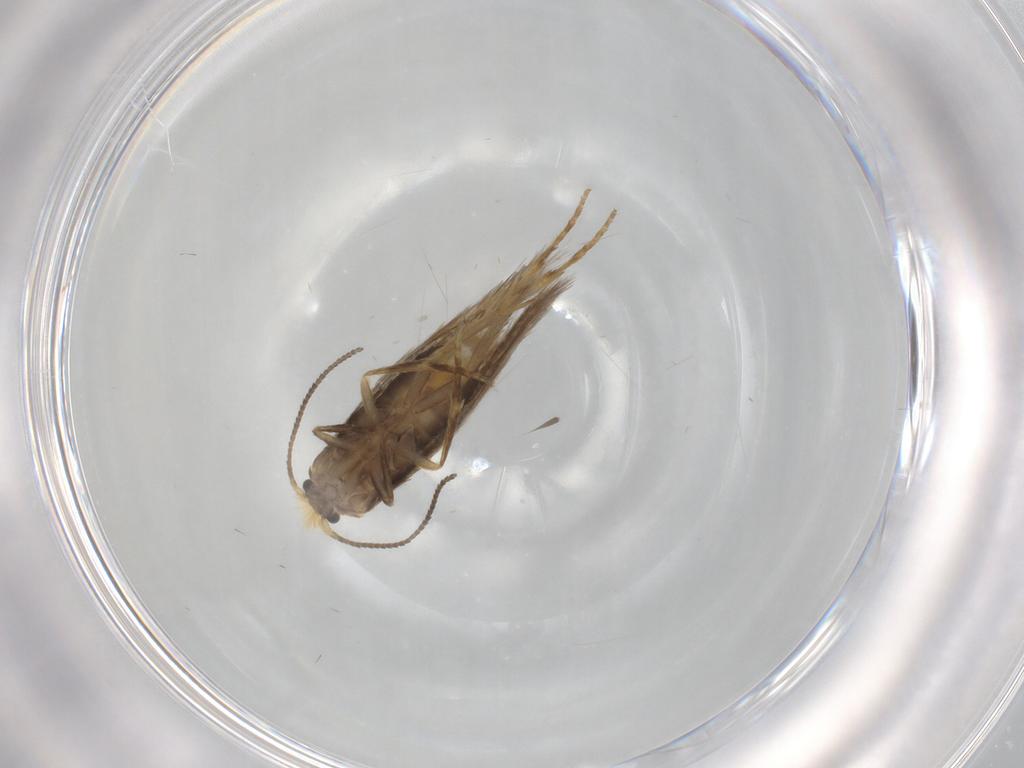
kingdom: Animalia
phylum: Arthropoda
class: Insecta
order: Lepidoptera
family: Nepticulidae
